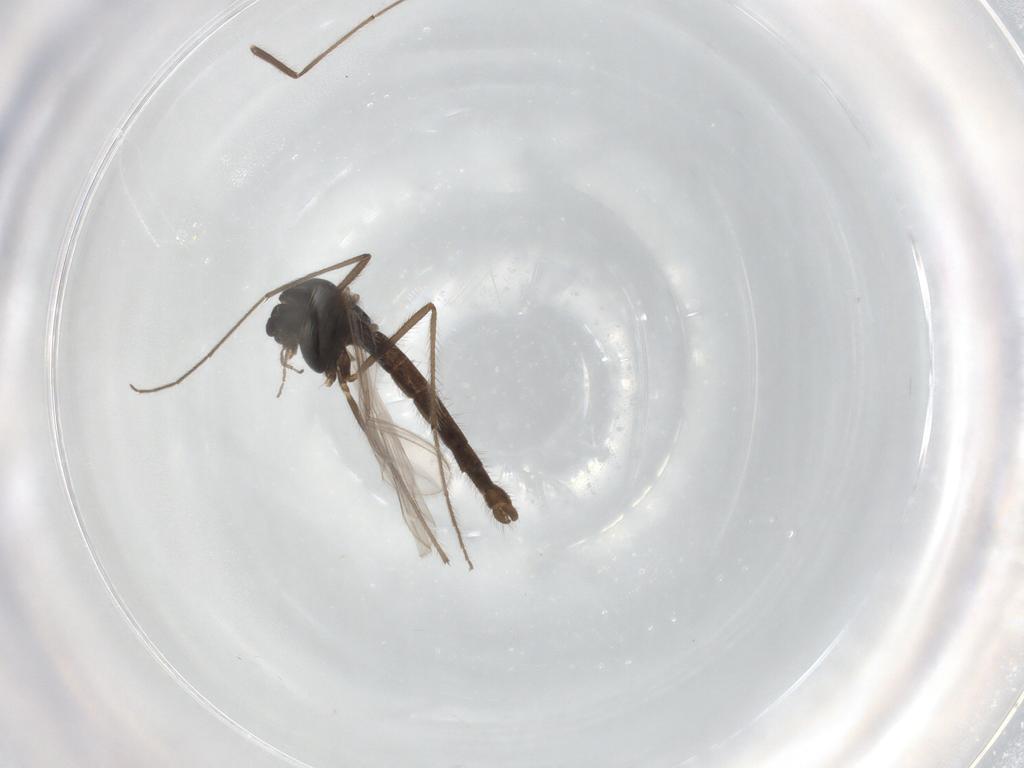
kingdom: Animalia
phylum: Arthropoda
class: Insecta
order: Diptera
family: Chironomidae
